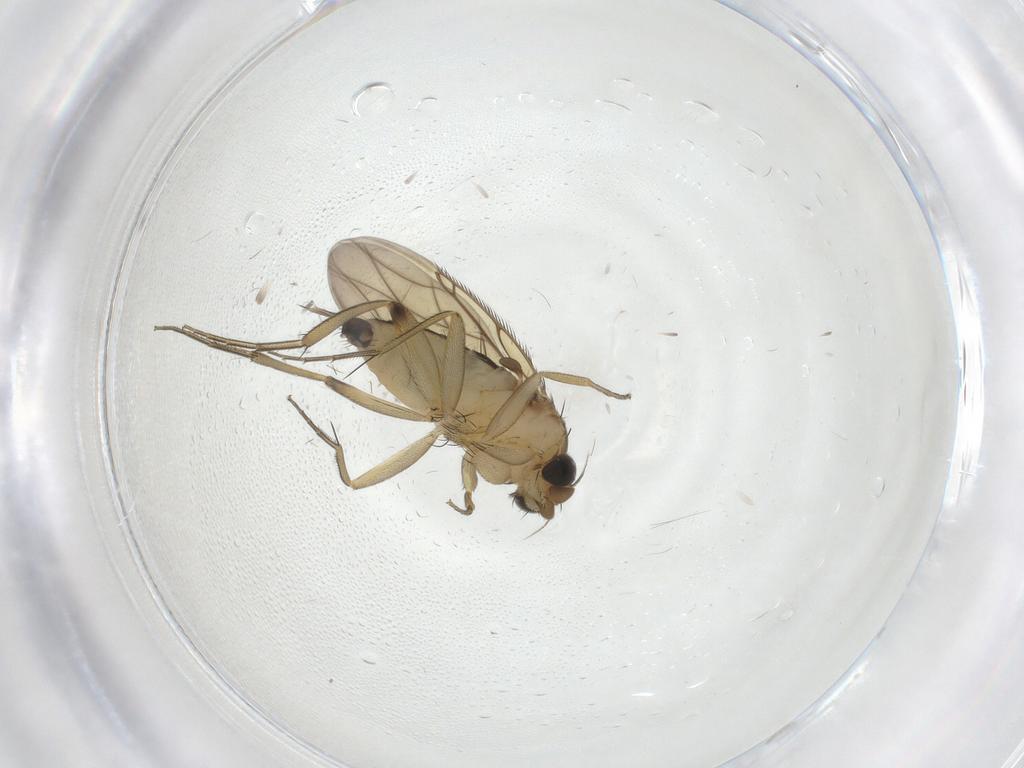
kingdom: Animalia
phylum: Arthropoda
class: Insecta
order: Diptera
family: Phoridae
